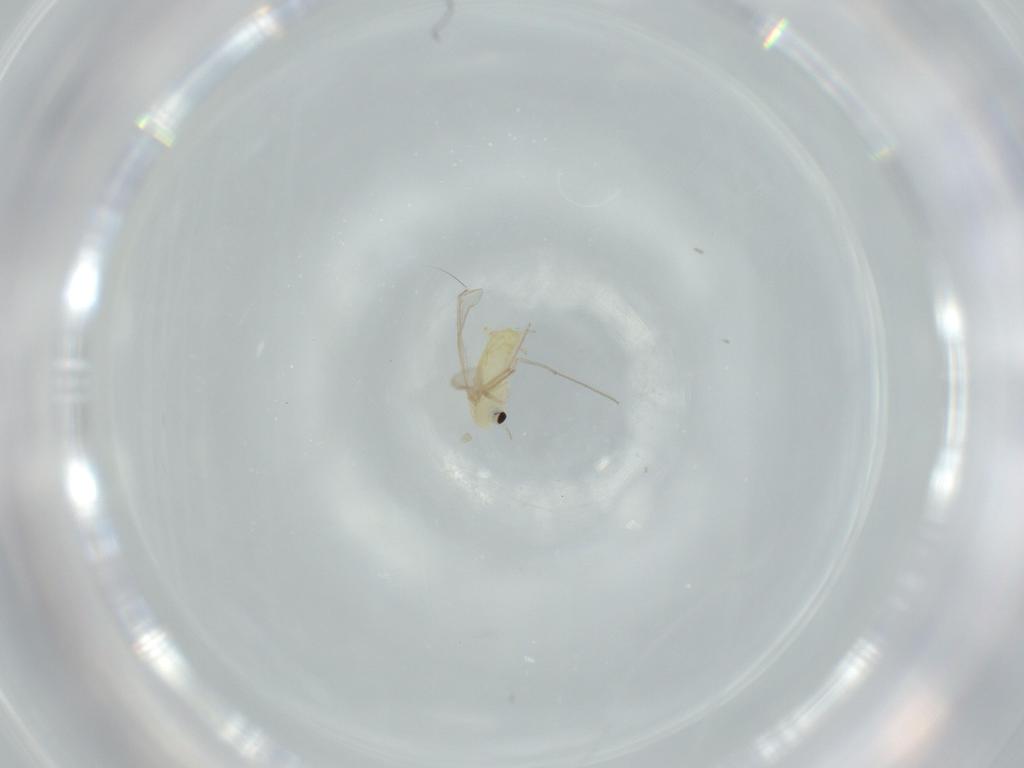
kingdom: Animalia
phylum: Arthropoda
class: Insecta
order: Diptera
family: Chironomidae
